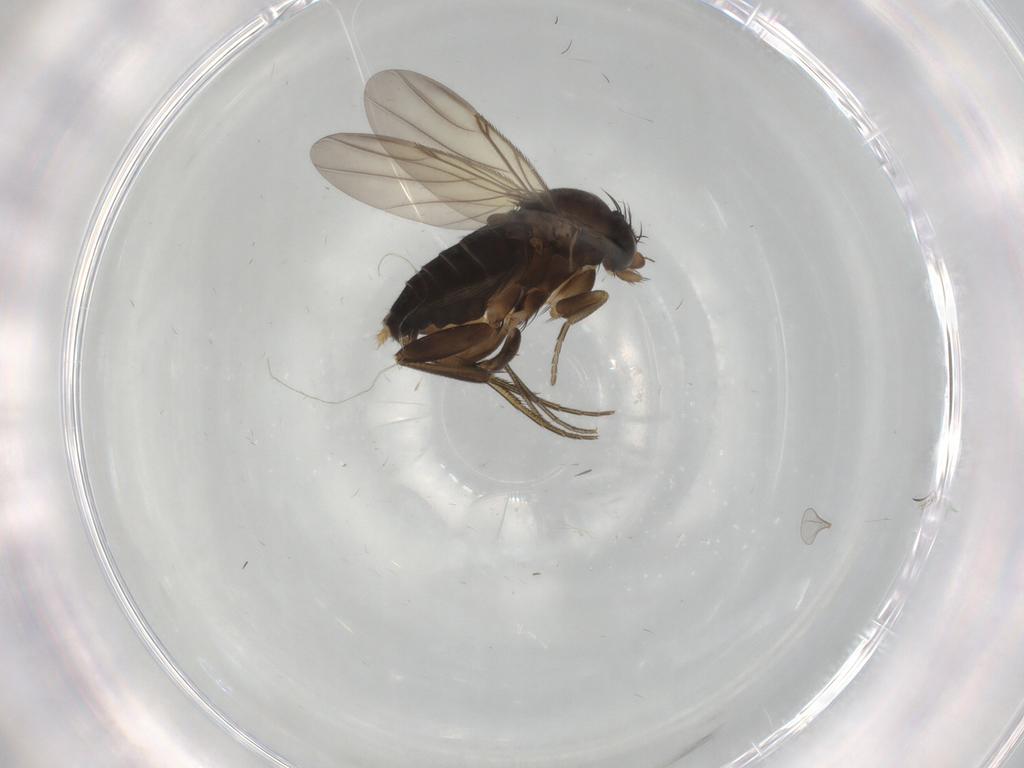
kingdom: Animalia
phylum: Arthropoda
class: Insecta
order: Diptera
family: Phoridae
